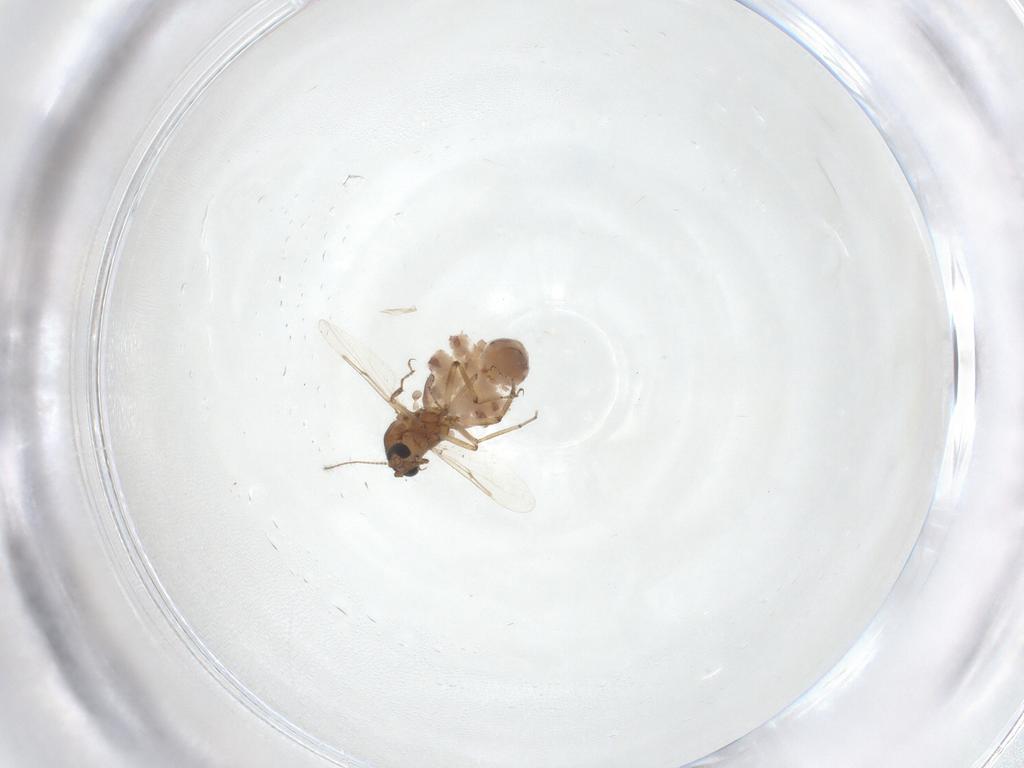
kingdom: Animalia
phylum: Arthropoda
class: Insecta
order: Diptera
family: Ceratopogonidae
